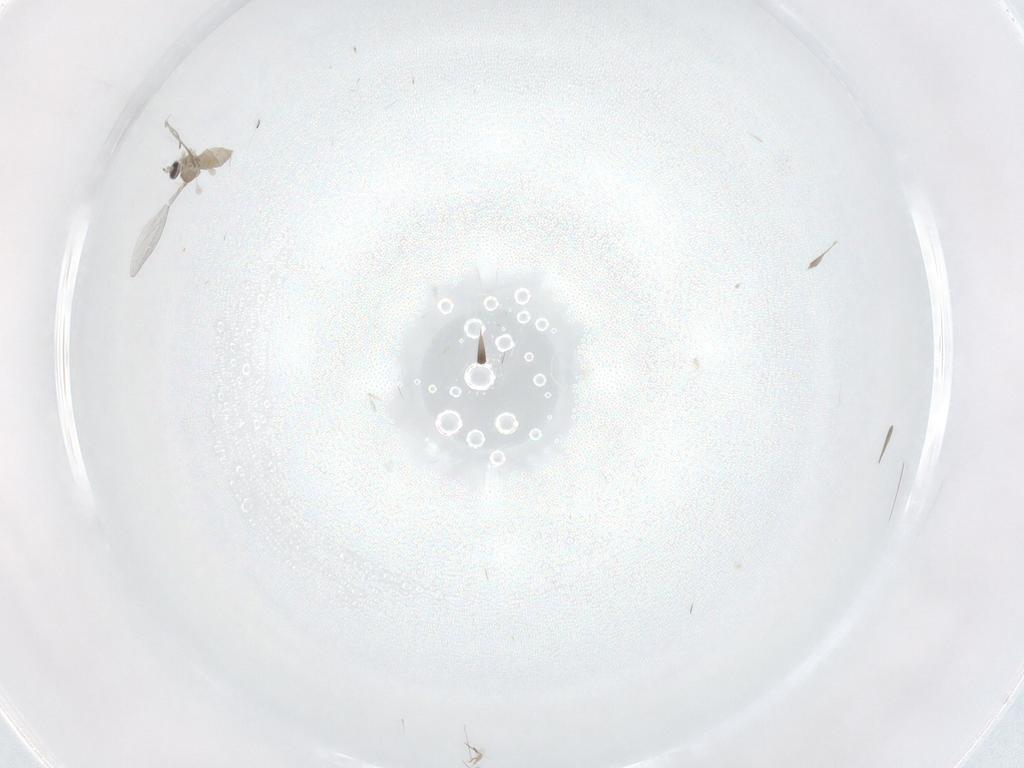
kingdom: Animalia
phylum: Arthropoda
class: Insecta
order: Diptera
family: Cecidomyiidae
